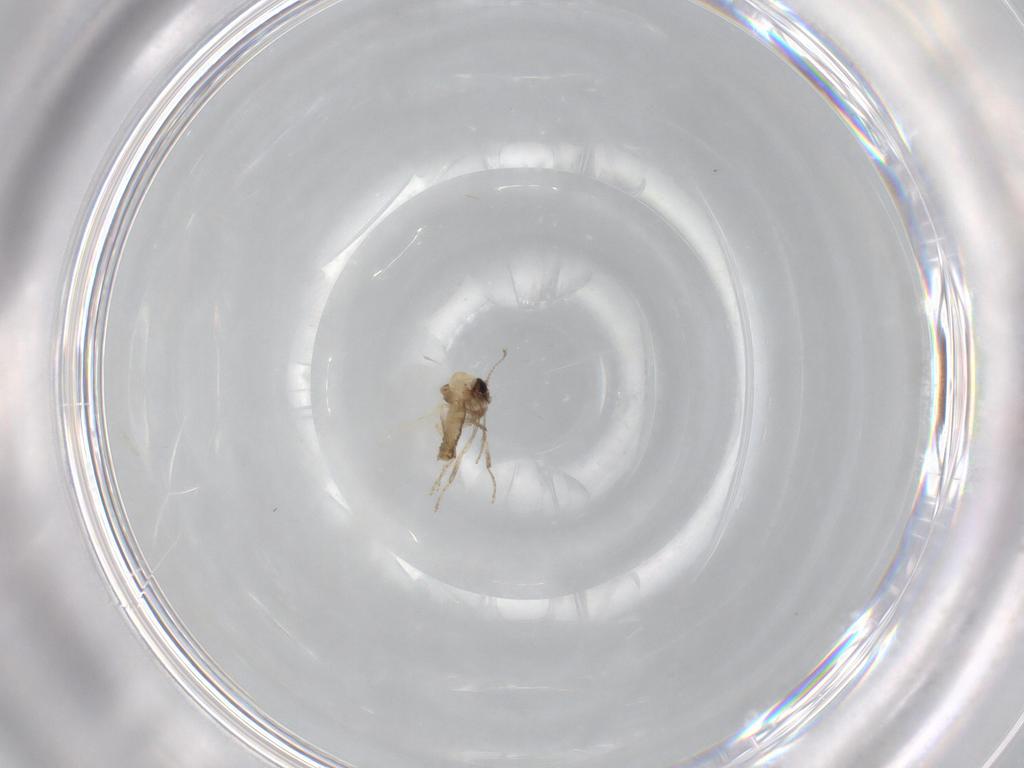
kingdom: Animalia
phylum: Arthropoda
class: Insecta
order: Diptera
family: Ceratopogonidae
